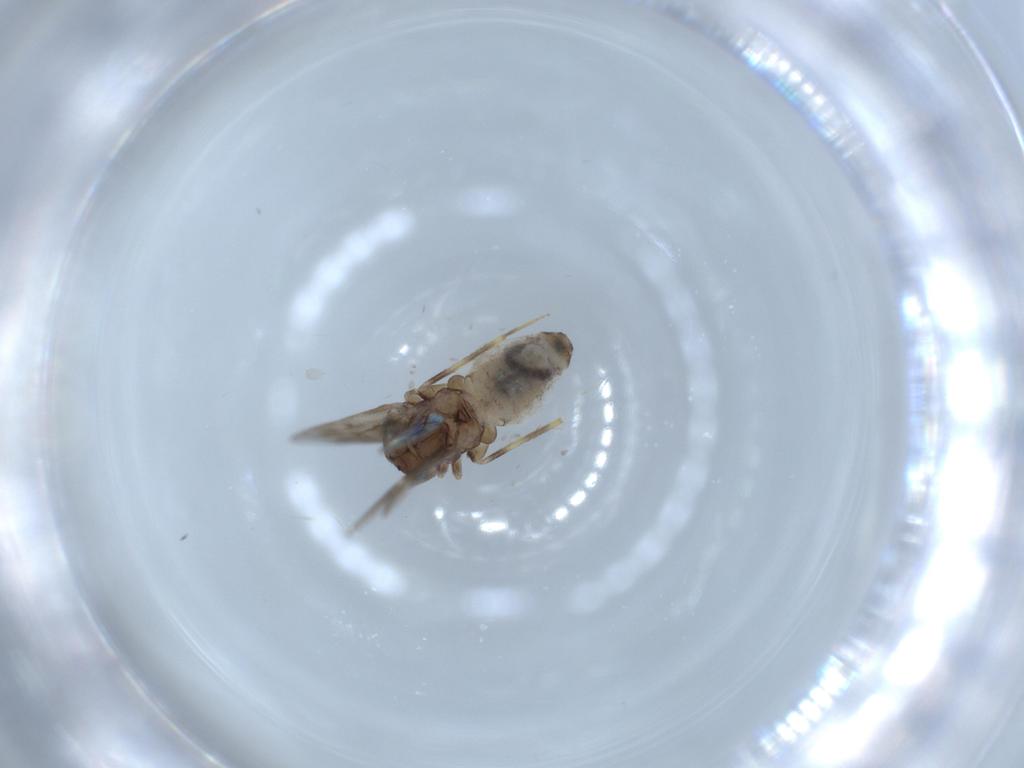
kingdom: Animalia
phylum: Arthropoda
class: Insecta
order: Psocodea
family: Lepidopsocidae
